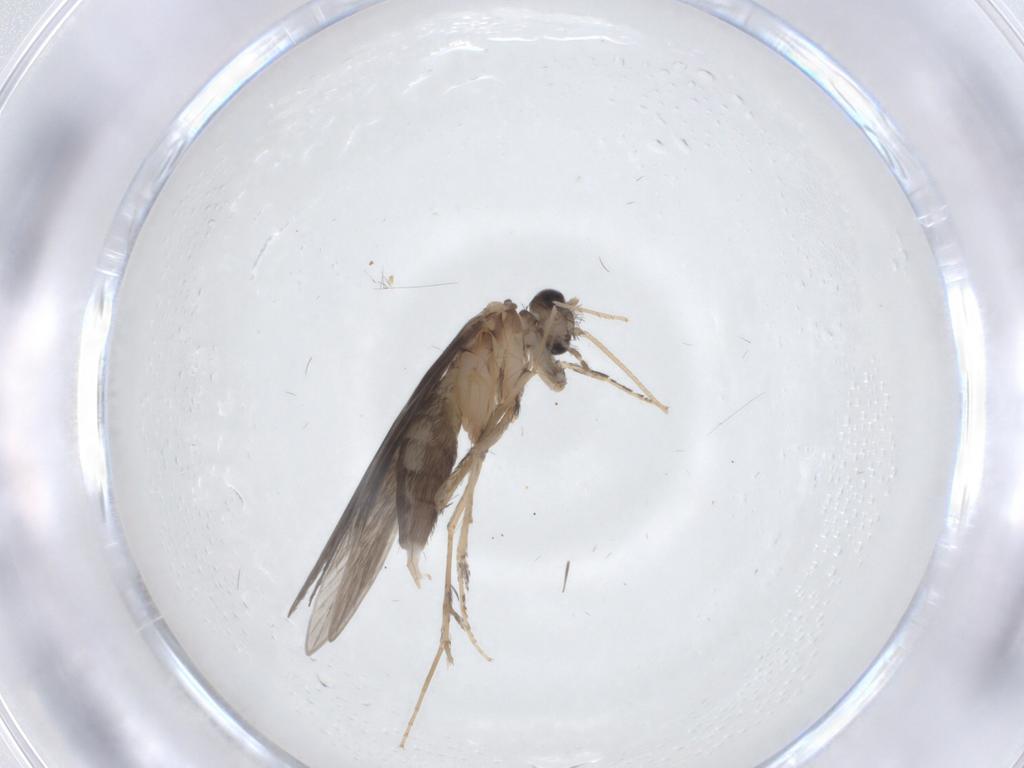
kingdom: Animalia
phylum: Arthropoda
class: Insecta
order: Trichoptera
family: Hydroptilidae
